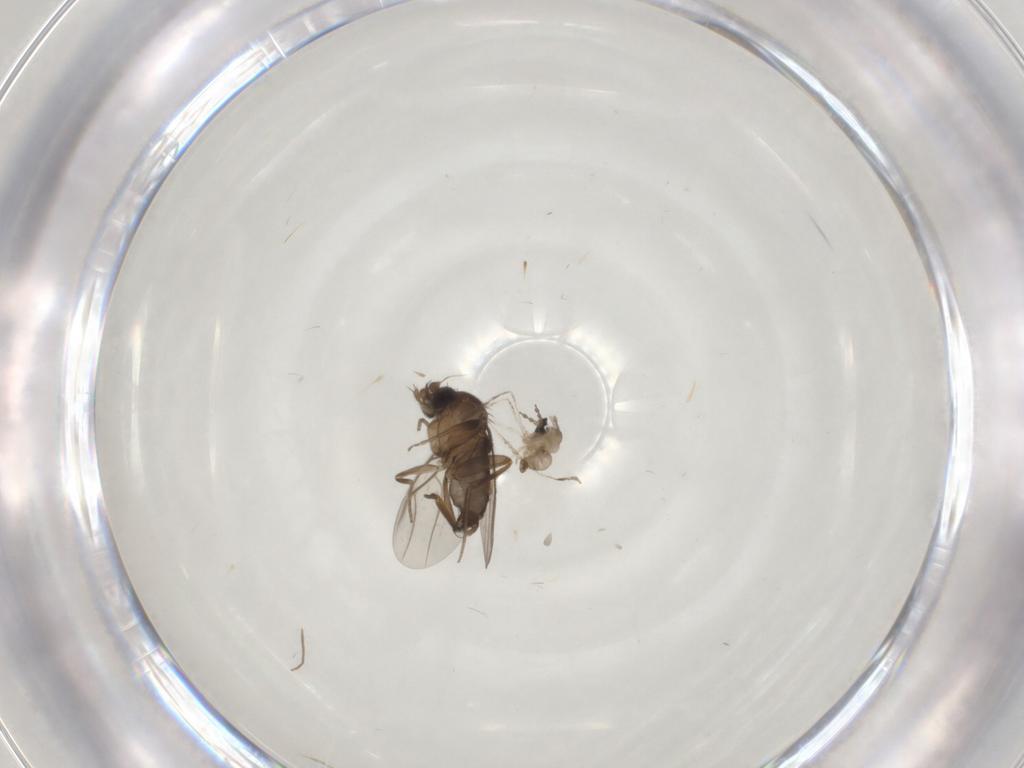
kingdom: Animalia
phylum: Arthropoda
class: Insecta
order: Diptera
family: Phoridae
